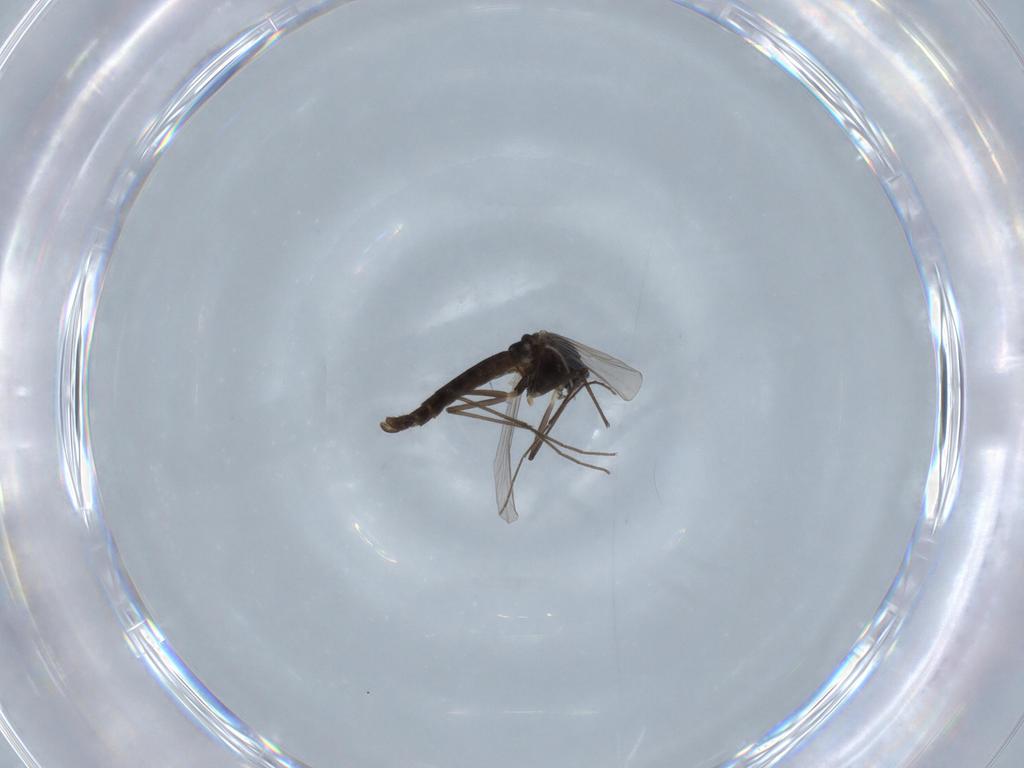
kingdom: Animalia
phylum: Arthropoda
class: Insecta
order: Diptera
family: Chironomidae
